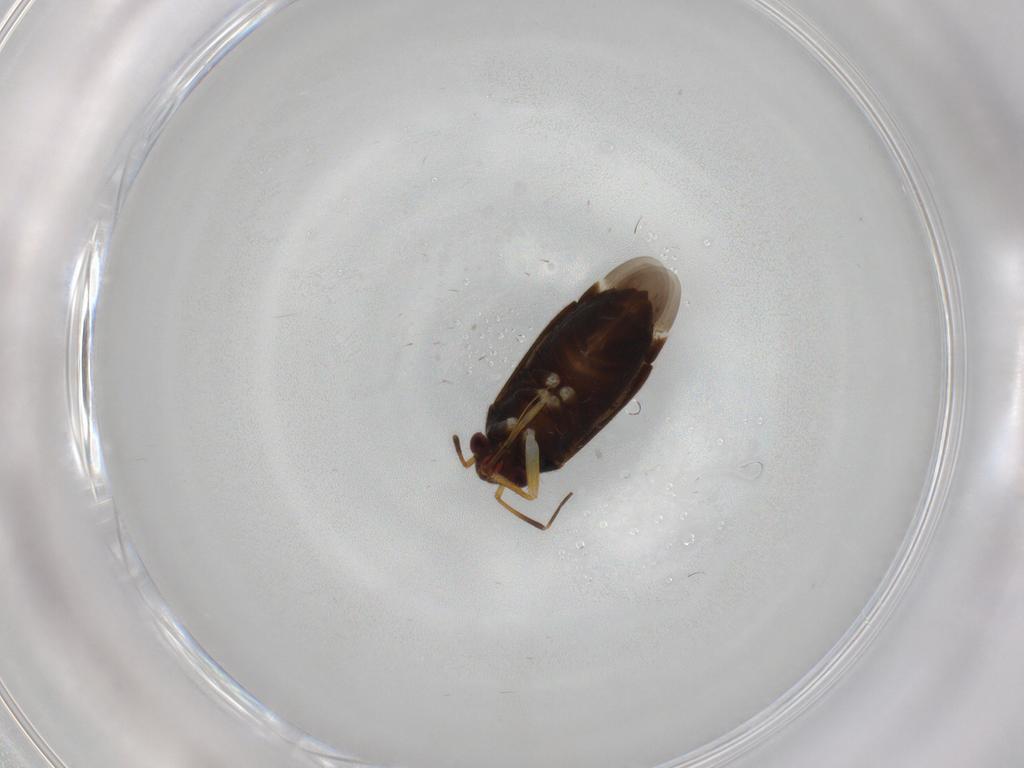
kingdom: Animalia
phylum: Arthropoda
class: Insecta
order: Hemiptera
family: Miridae
